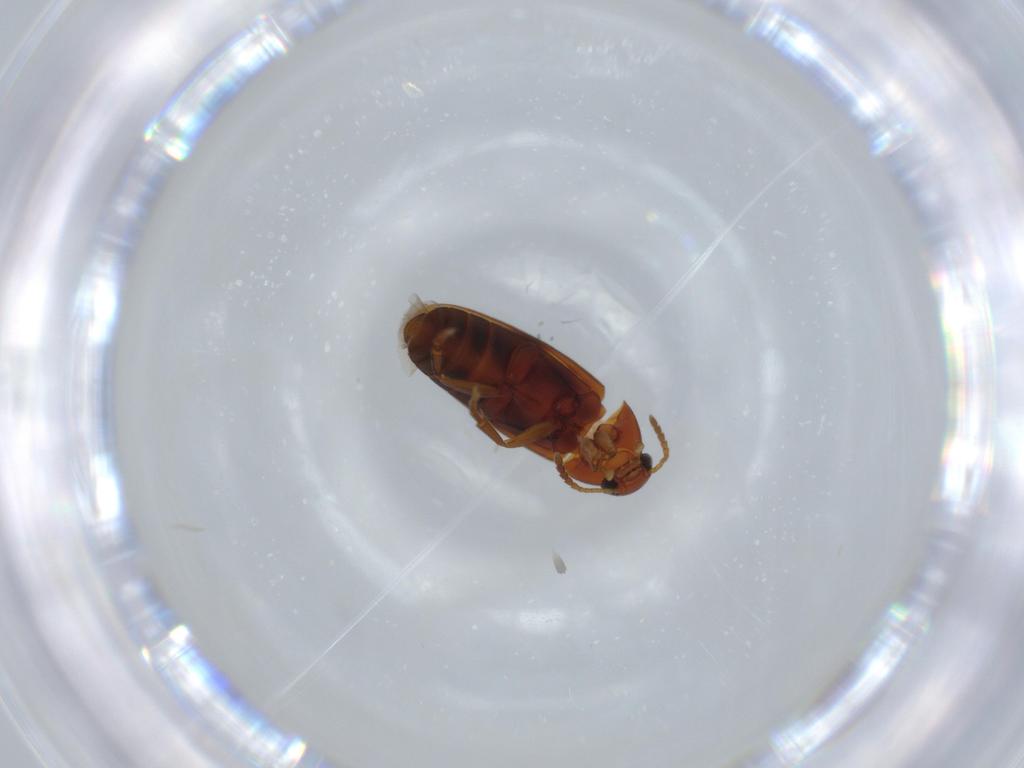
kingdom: Animalia
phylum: Arthropoda
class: Insecta
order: Coleoptera
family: Scraptiidae
